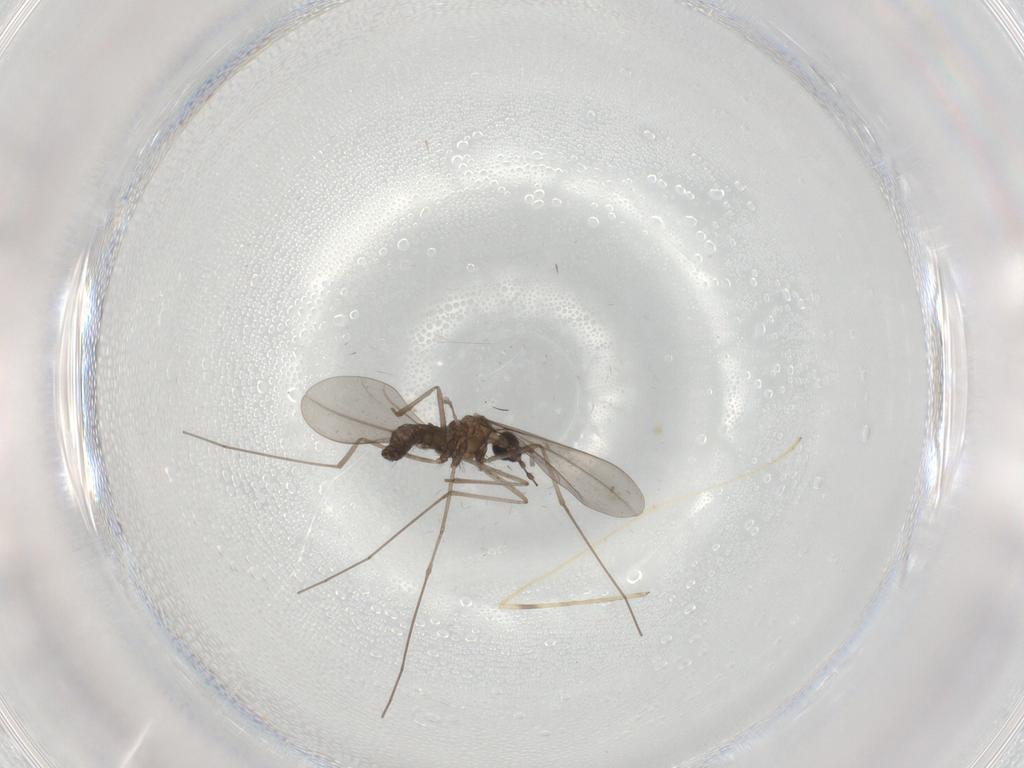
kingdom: Animalia
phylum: Arthropoda
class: Insecta
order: Diptera
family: Cecidomyiidae
